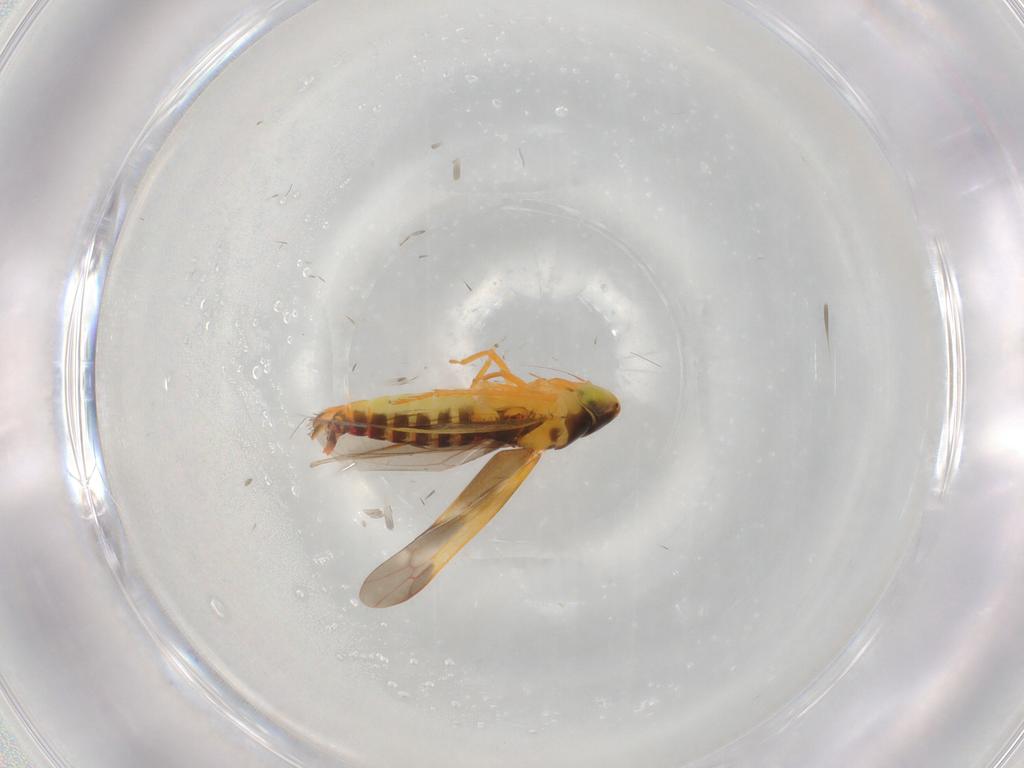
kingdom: Animalia
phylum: Arthropoda
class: Insecta
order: Hemiptera
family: Cicadellidae
